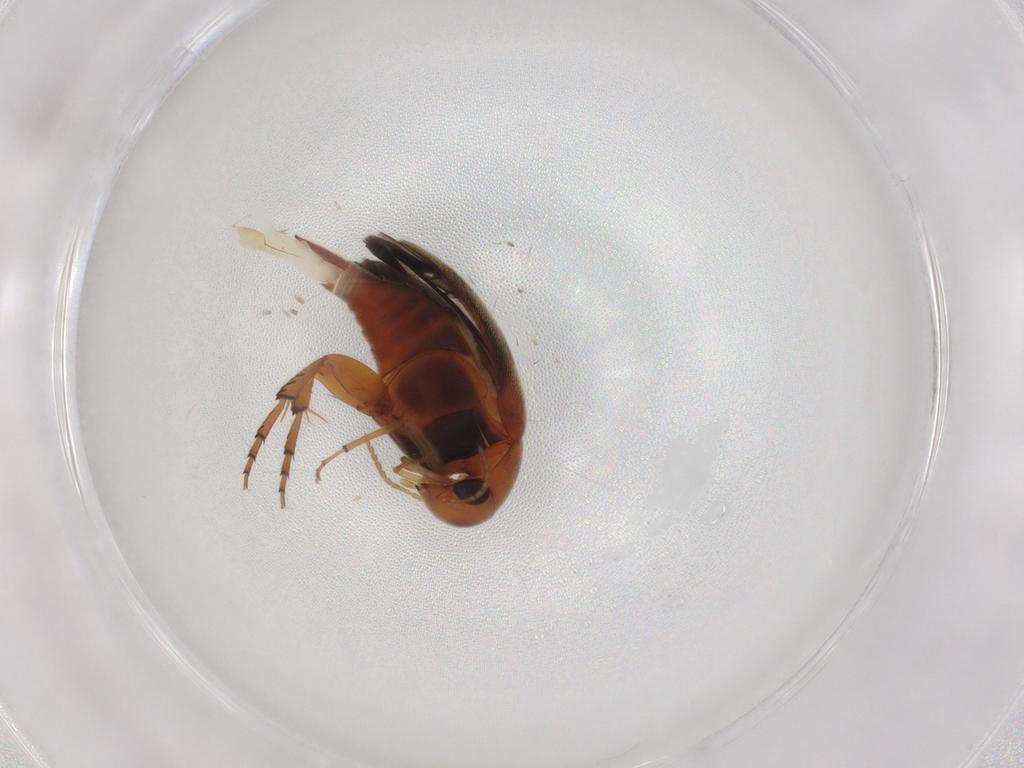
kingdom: Animalia
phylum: Arthropoda
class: Insecta
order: Coleoptera
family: Mordellidae
